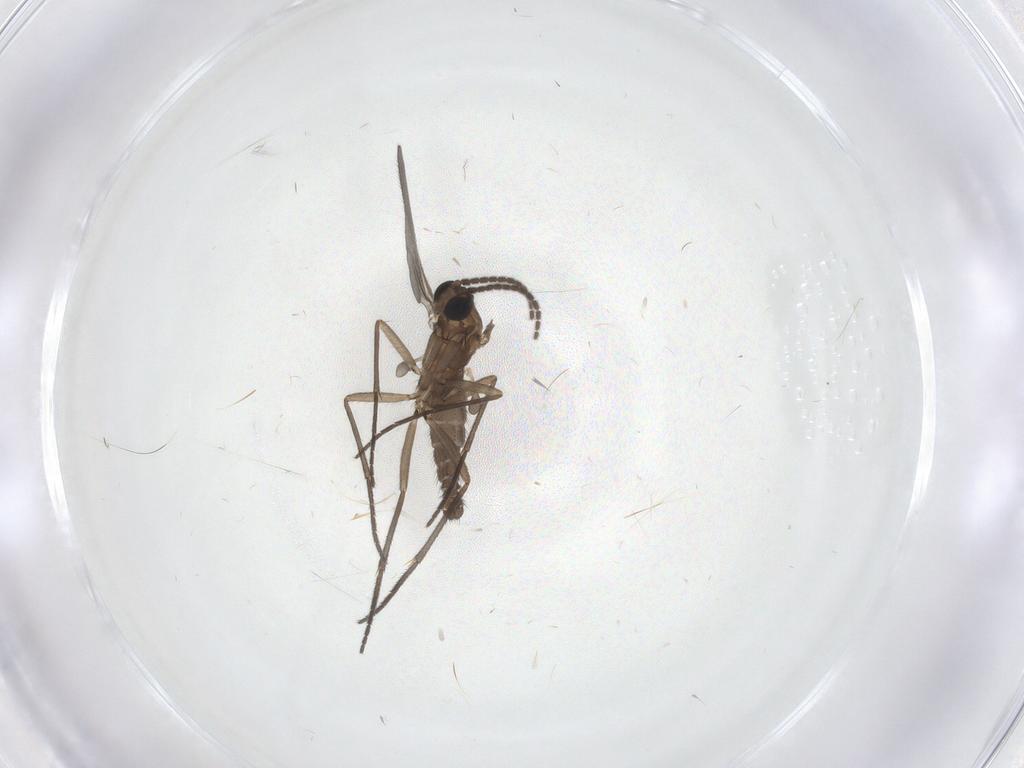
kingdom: Animalia
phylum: Arthropoda
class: Insecta
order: Diptera
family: Sciaridae
